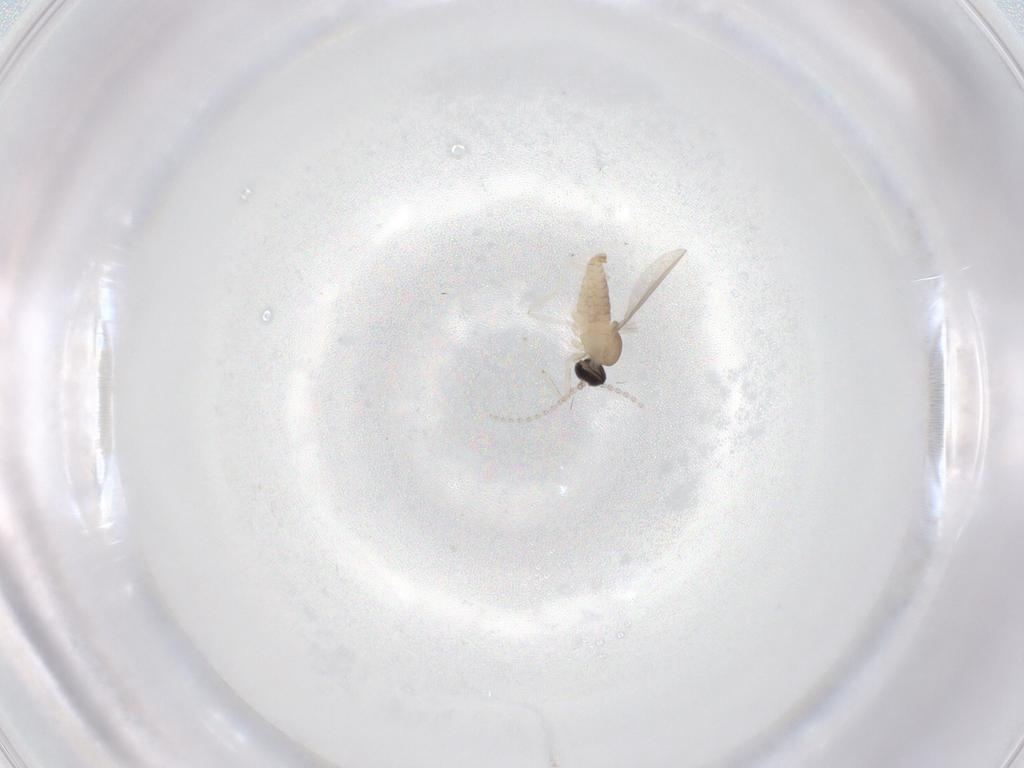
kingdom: Animalia
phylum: Arthropoda
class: Insecta
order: Diptera
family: Cecidomyiidae
